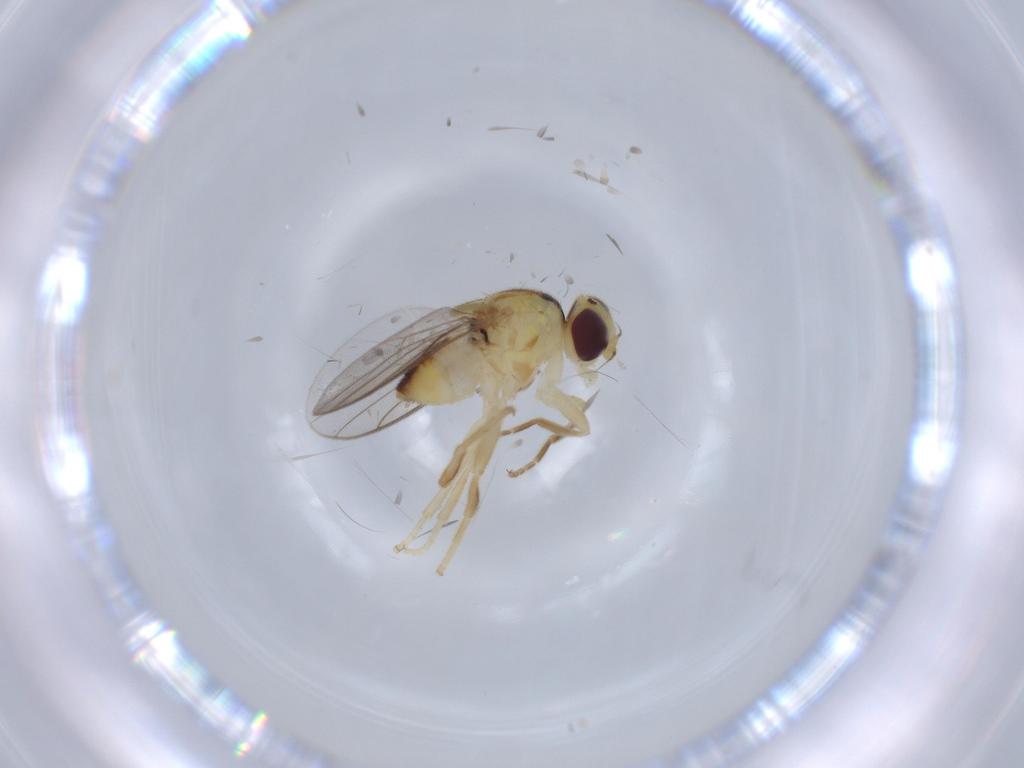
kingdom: Animalia
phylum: Arthropoda
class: Insecta
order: Diptera
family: Chloropidae
